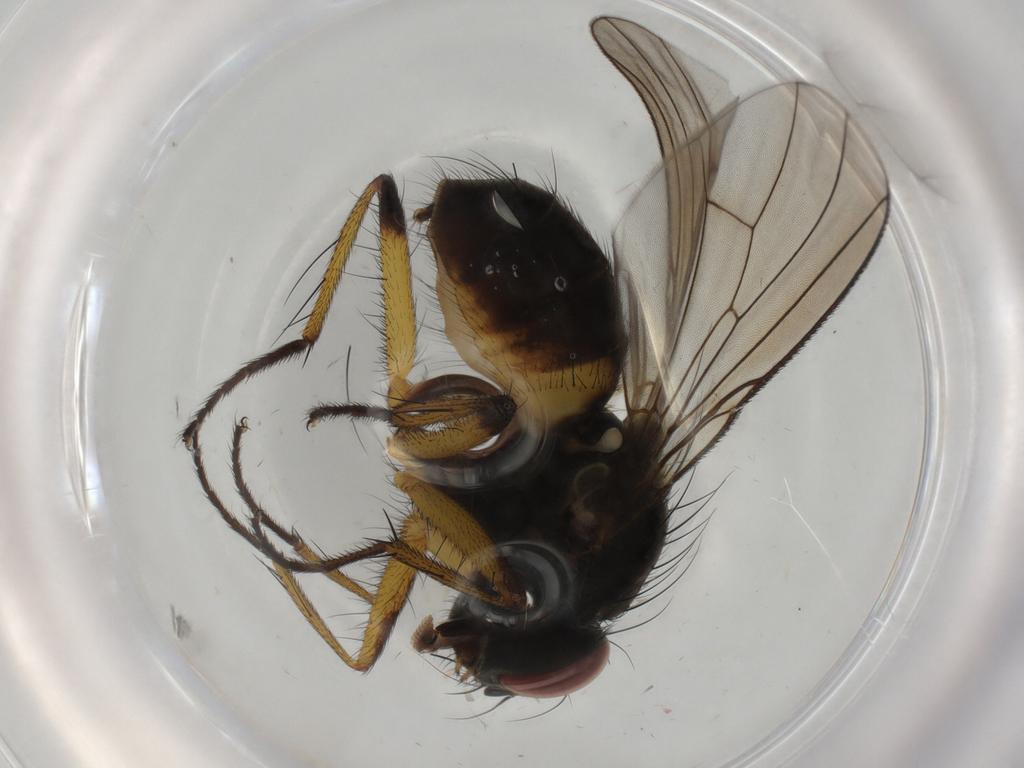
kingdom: Animalia
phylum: Arthropoda
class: Insecta
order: Diptera
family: Muscidae
